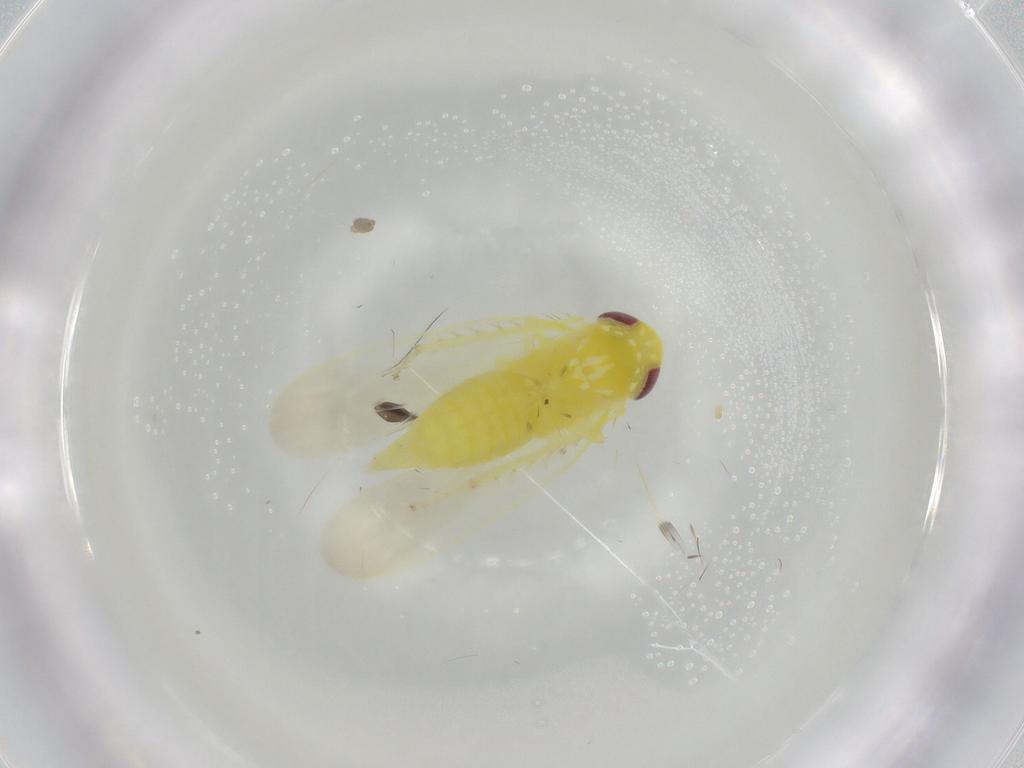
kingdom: Animalia
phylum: Arthropoda
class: Insecta
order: Hemiptera
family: Cicadellidae
